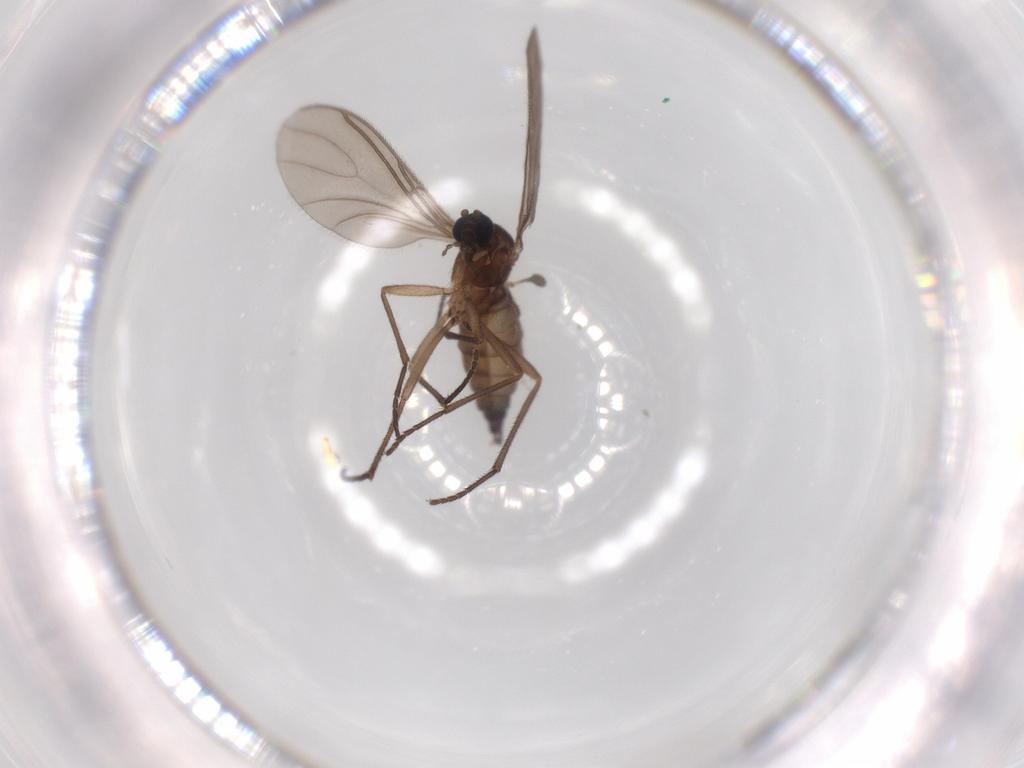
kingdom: Animalia
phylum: Arthropoda
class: Insecta
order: Diptera
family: Sciaridae
